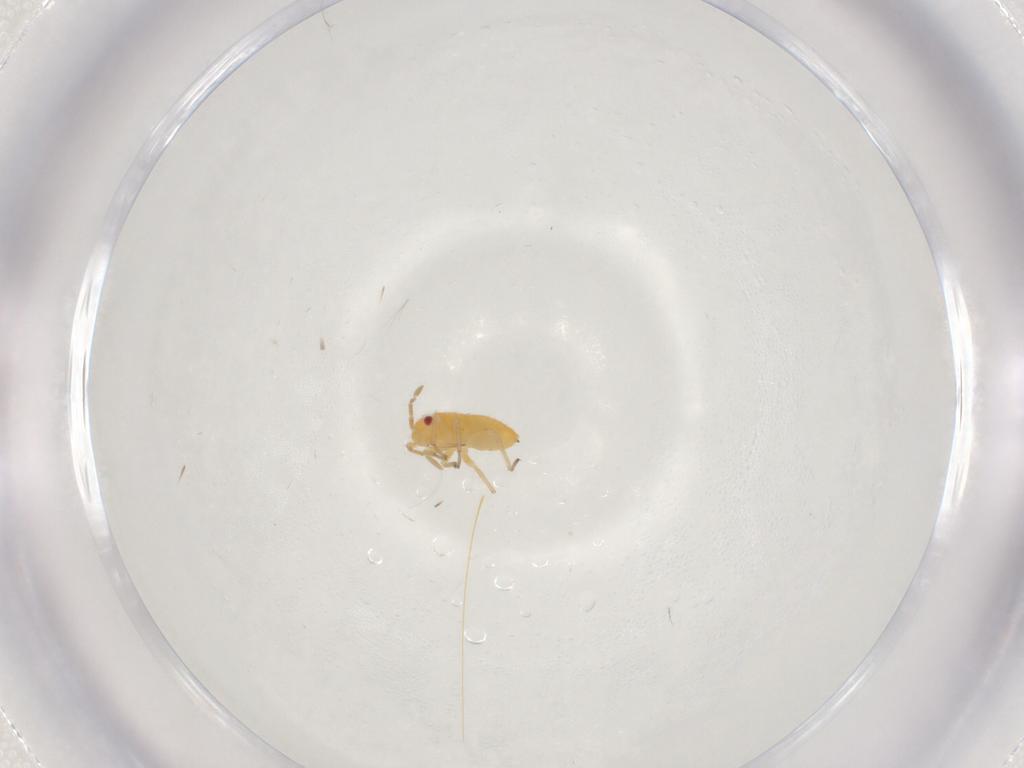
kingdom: Animalia
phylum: Arthropoda
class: Insecta
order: Hemiptera
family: Miridae
